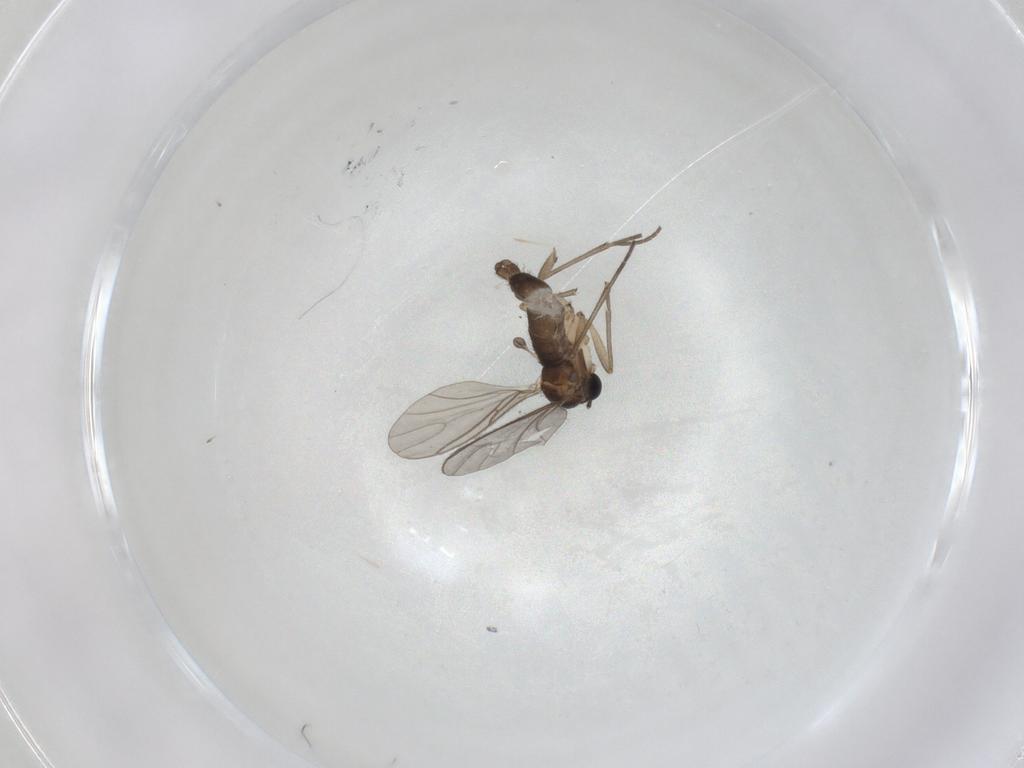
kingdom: Animalia
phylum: Arthropoda
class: Insecta
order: Diptera
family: Sciaridae
